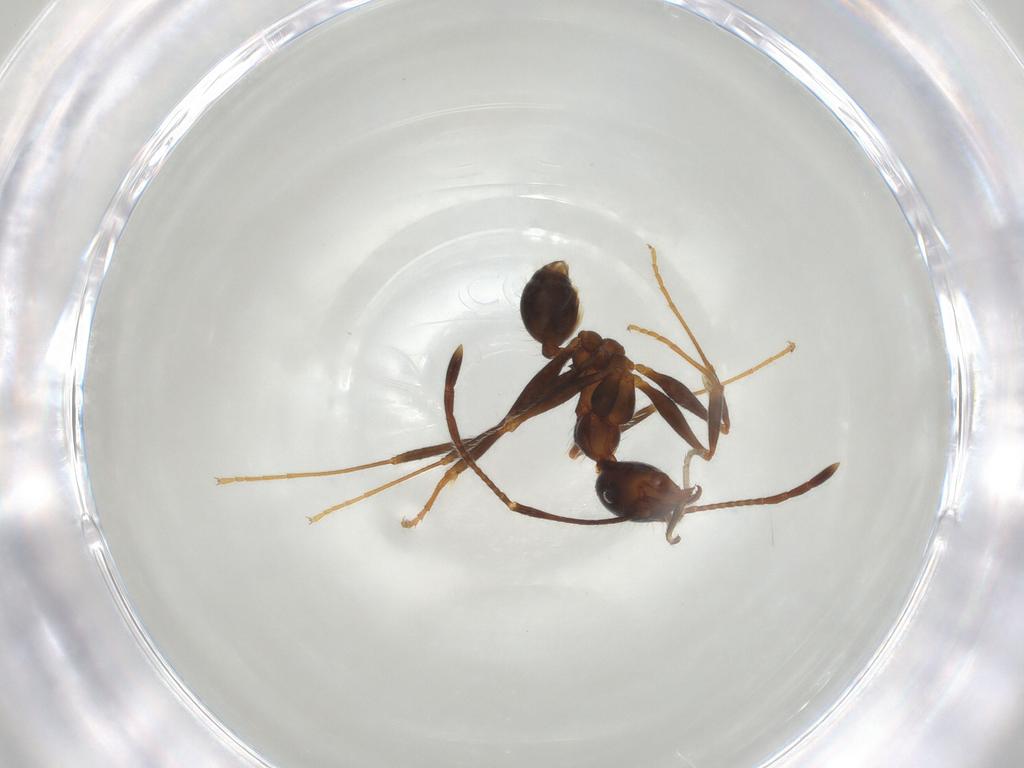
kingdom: Animalia
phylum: Arthropoda
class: Insecta
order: Hymenoptera
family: Formicidae
